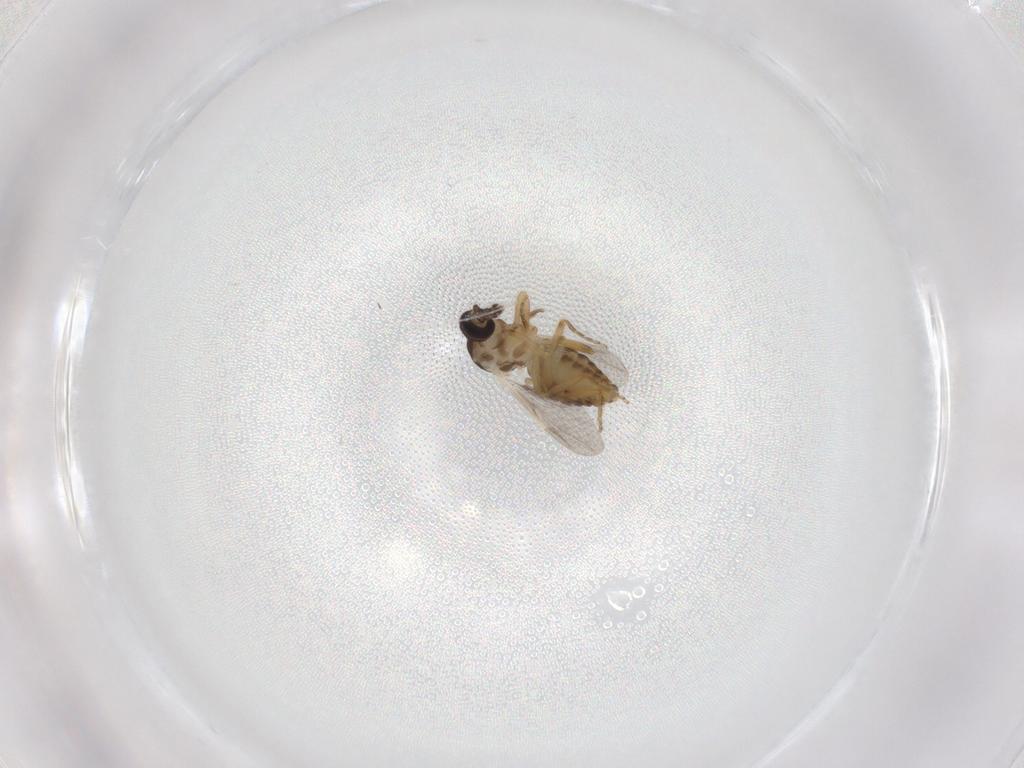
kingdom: Animalia
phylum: Arthropoda
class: Insecta
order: Diptera
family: Ceratopogonidae
